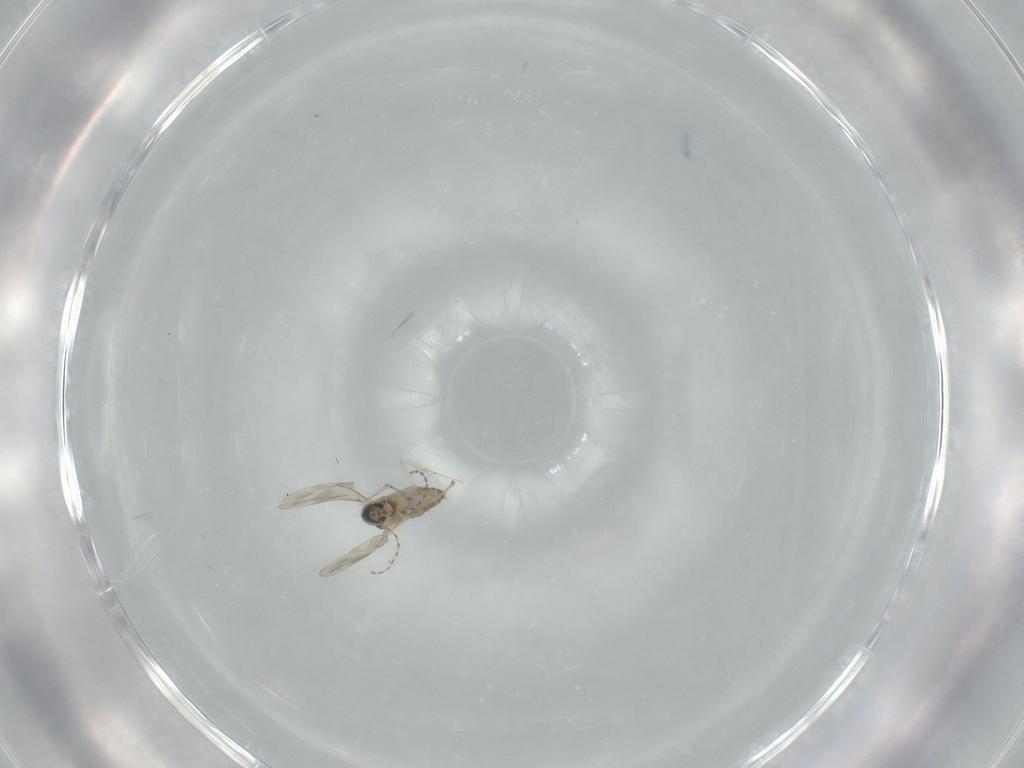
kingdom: Animalia
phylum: Arthropoda
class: Insecta
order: Diptera
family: Cecidomyiidae
